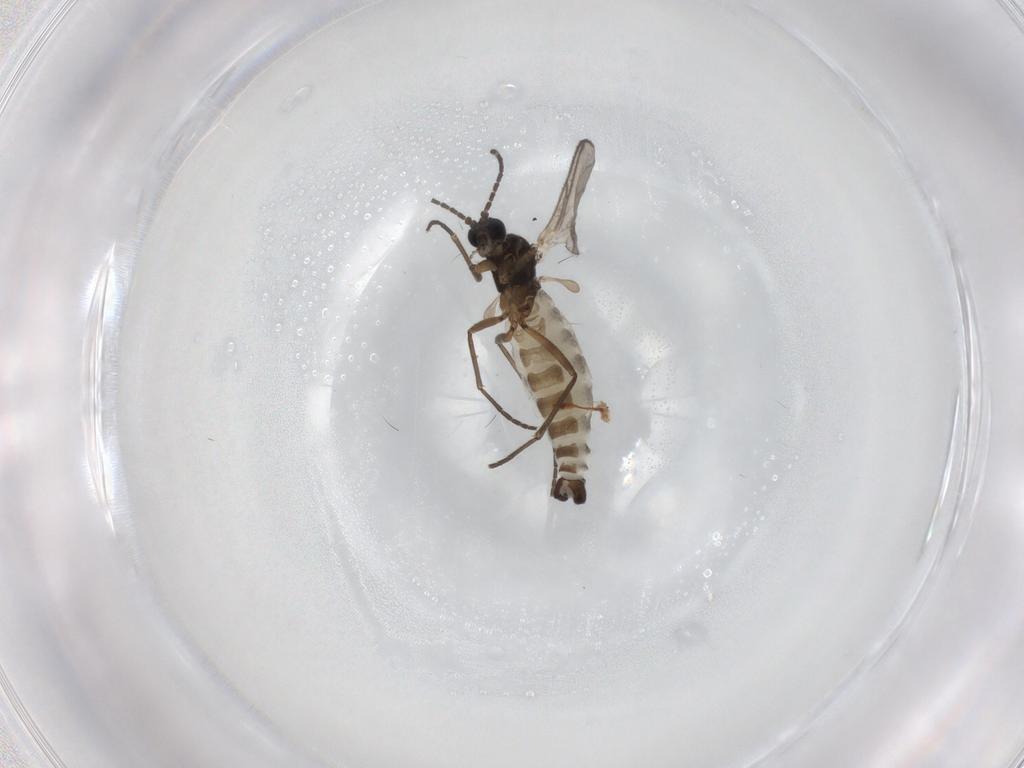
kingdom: Animalia
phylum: Arthropoda
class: Insecta
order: Diptera
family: Sciaridae
